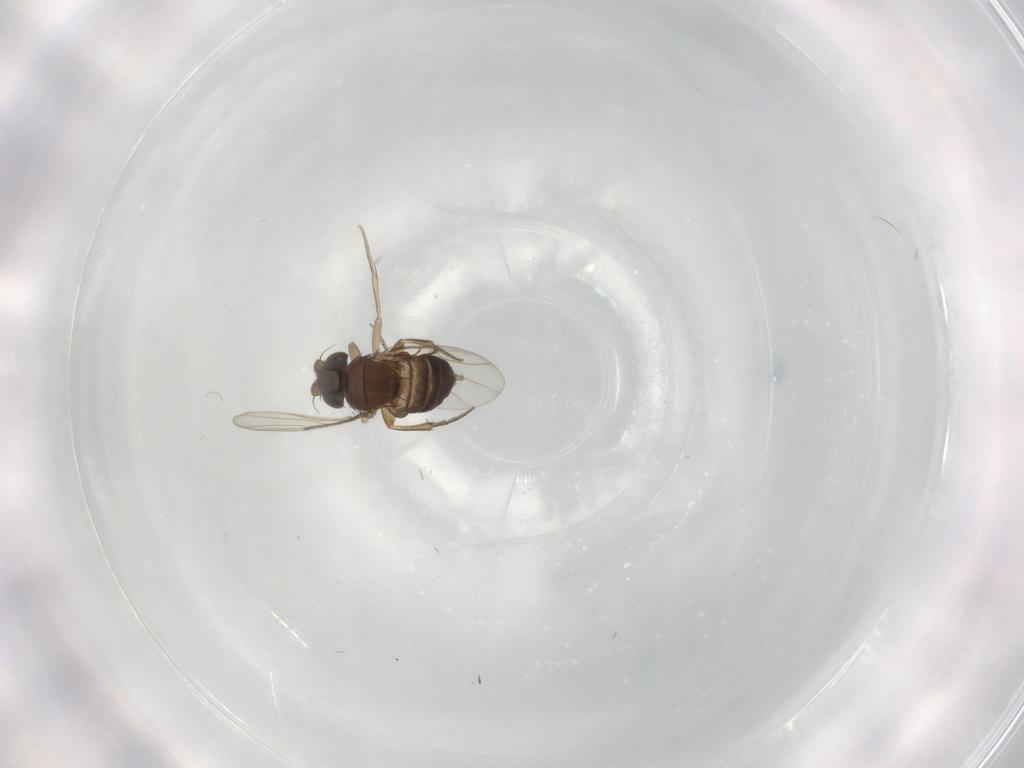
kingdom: Animalia
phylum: Arthropoda
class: Insecta
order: Diptera
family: Phoridae
